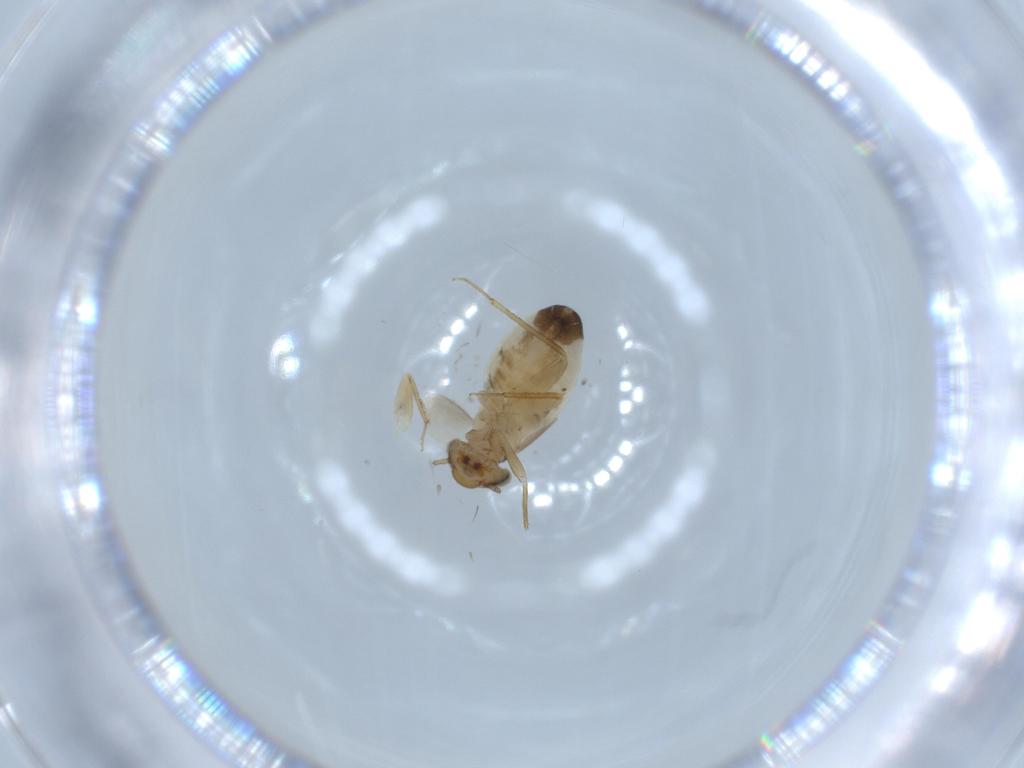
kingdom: Animalia
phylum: Arthropoda
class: Insecta
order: Psocodea
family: Lepidopsocidae
